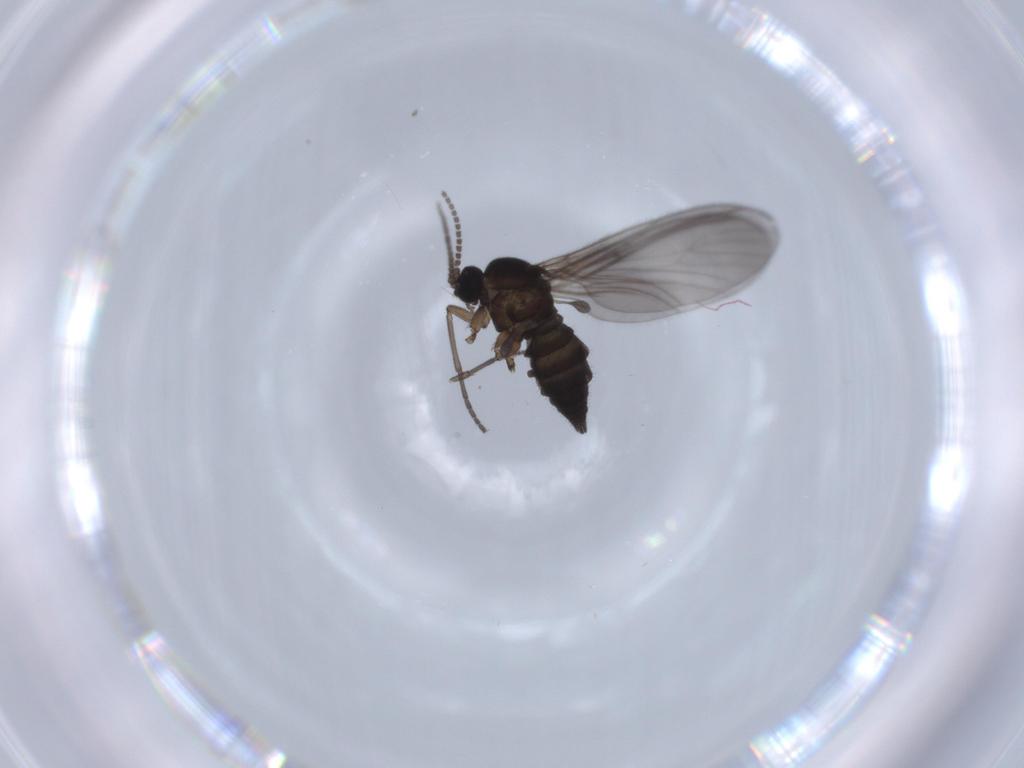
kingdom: Animalia
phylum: Arthropoda
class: Insecta
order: Diptera
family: Sciaridae
